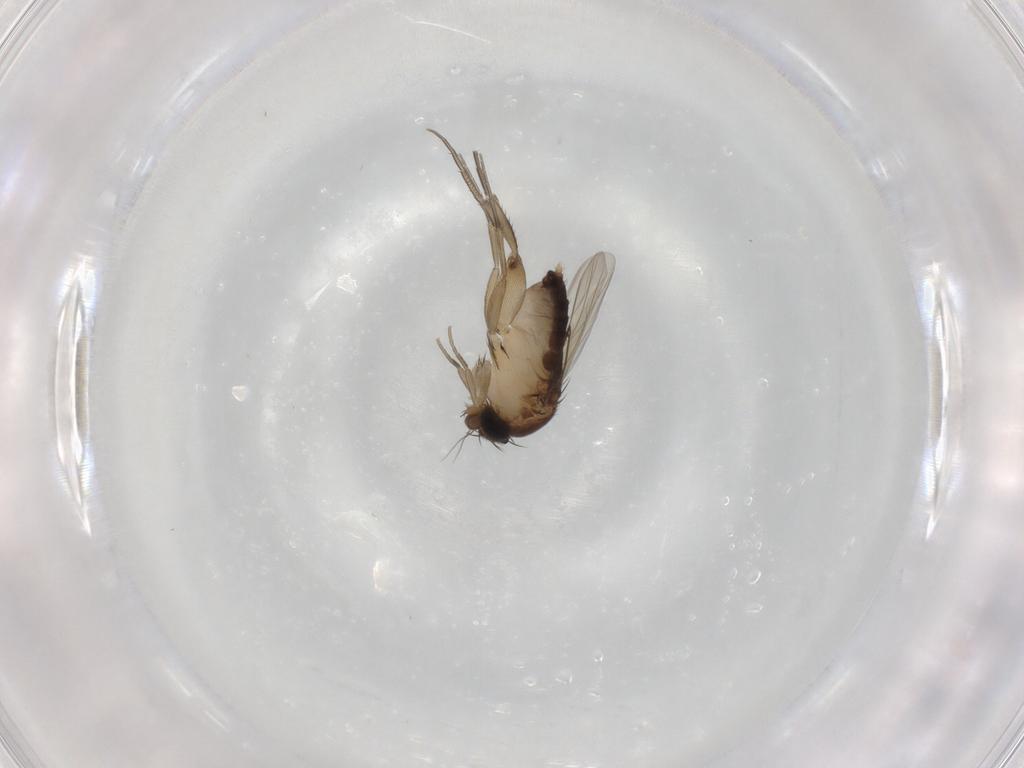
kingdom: Animalia
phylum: Arthropoda
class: Insecta
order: Diptera
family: Phoridae
